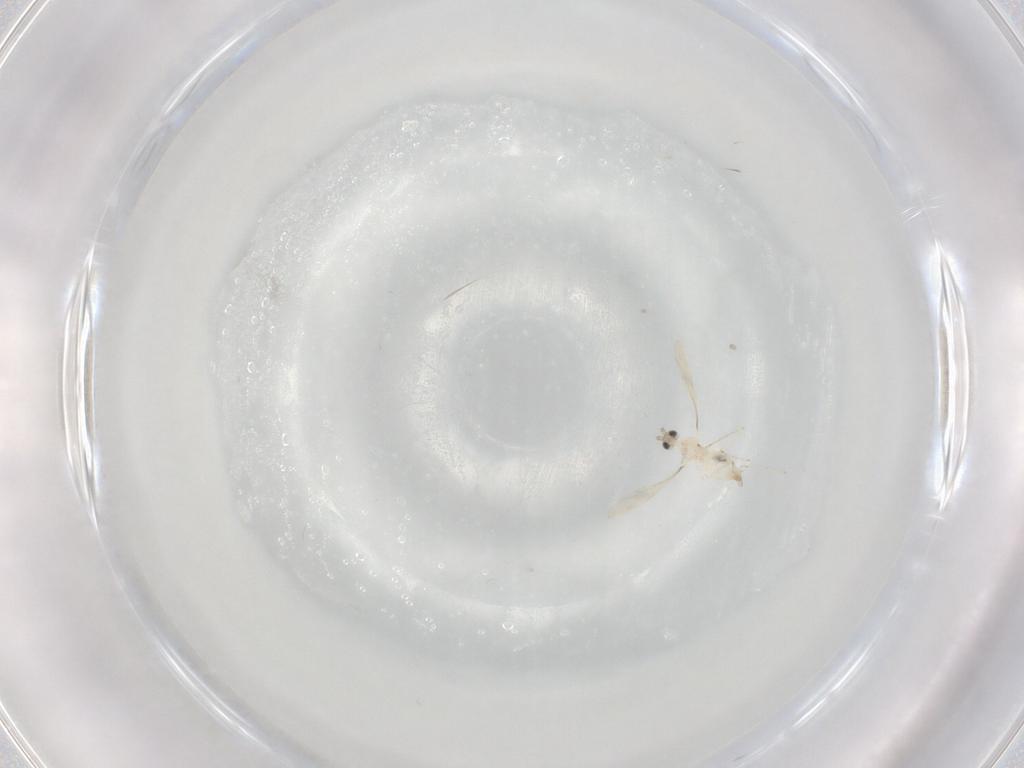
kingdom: Animalia
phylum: Arthropoda
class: Insecta
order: Diptera
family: Cecidomyiidae
